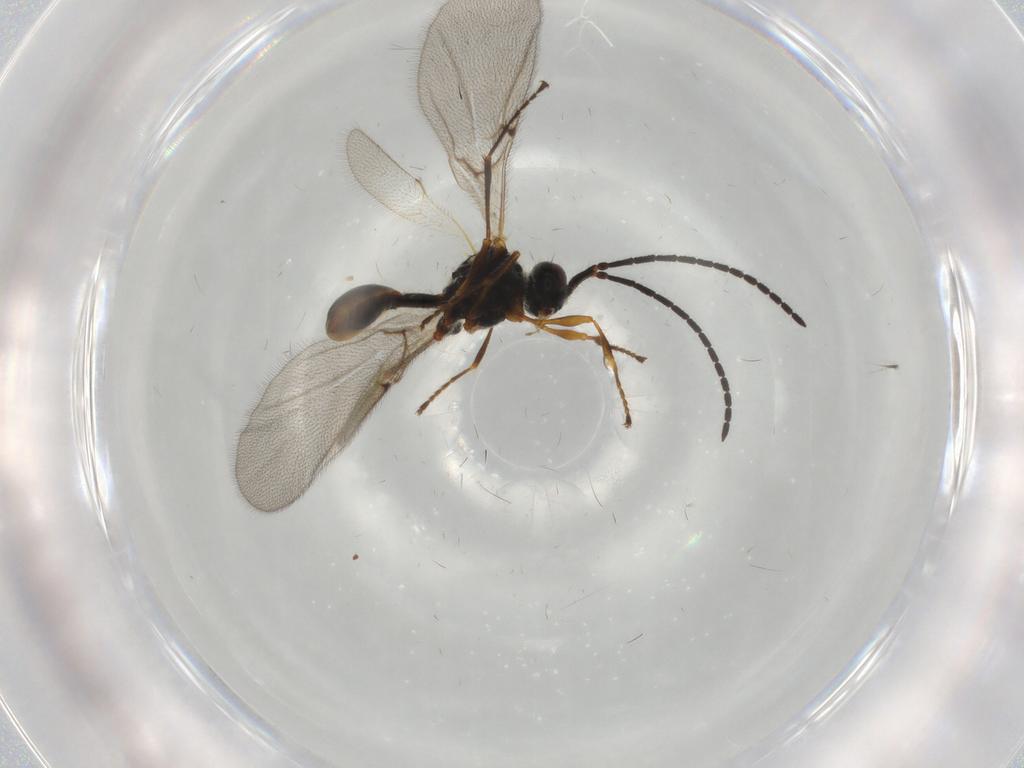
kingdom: Animalia
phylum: Arthropoda
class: Insecta
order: Hymenoptera
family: Diapriidae
